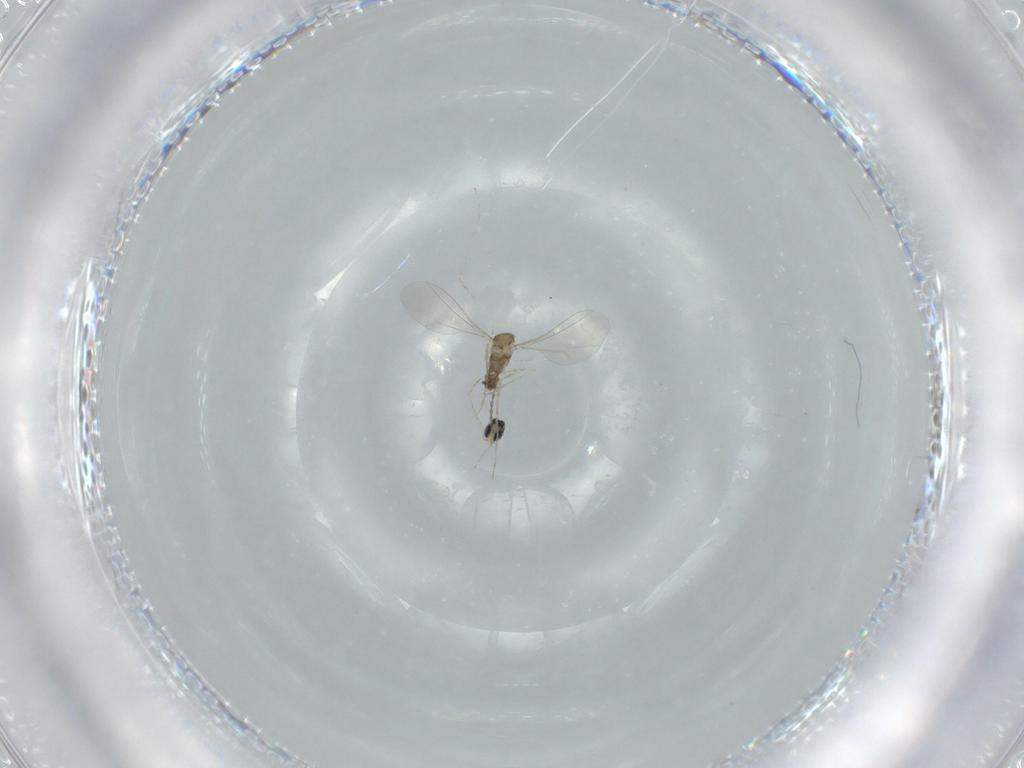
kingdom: Animalia
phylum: Arthropoda
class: Insecta
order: Diptera
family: Cecidomyiidae
